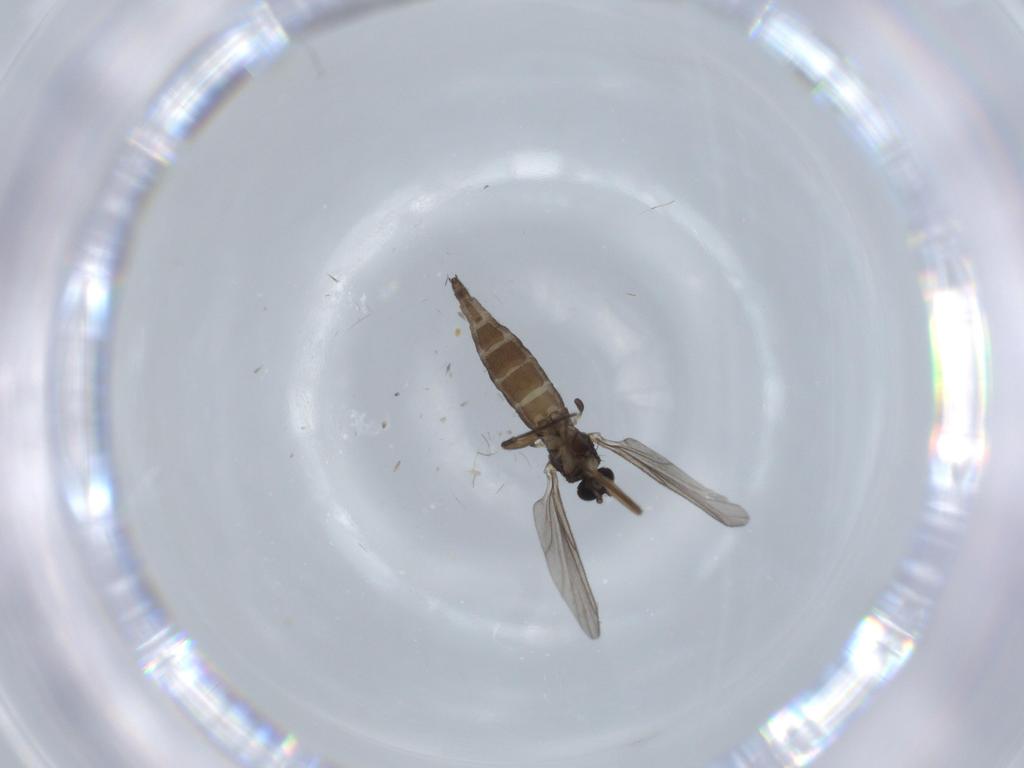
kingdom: Animalia
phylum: Arthropoda
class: Insecta
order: Diptera
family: Sciaridae
